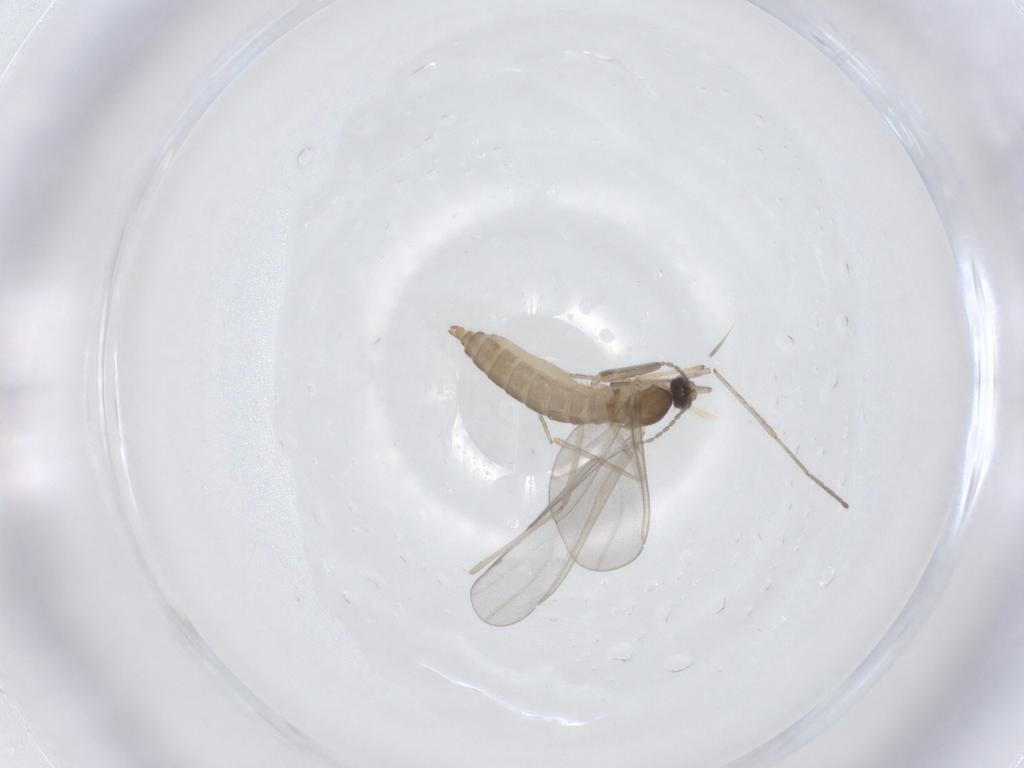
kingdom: Animalia
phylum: Arthropoda
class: Insecta
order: Diptera
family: Cecidomyiidae
